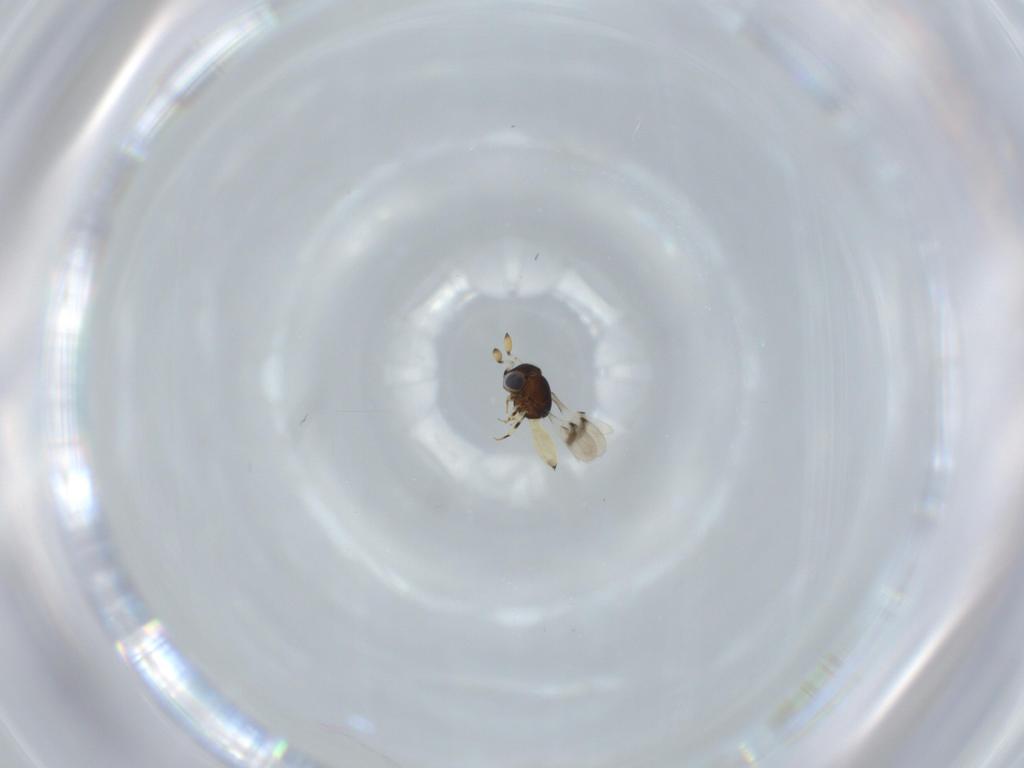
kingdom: Animalia
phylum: Arthropoda
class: Insecta
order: Hymenoptera
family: Scelionidae
